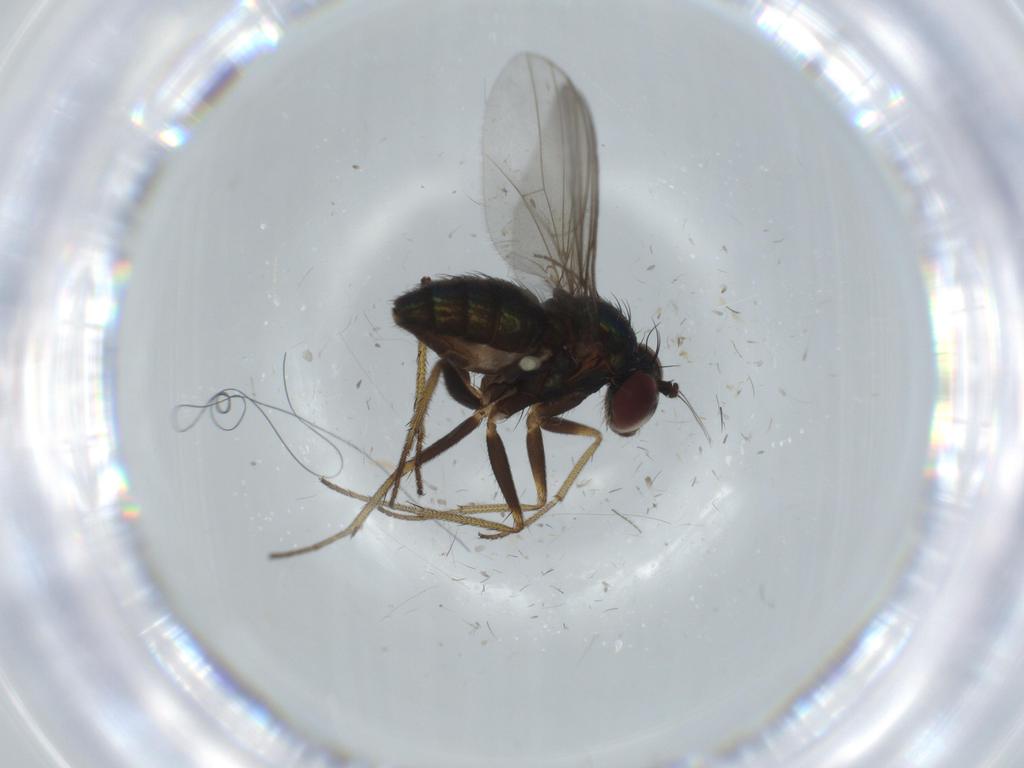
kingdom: Animalia
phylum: Arthropoda
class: Insecta
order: Diptera
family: Dolichopodidae
